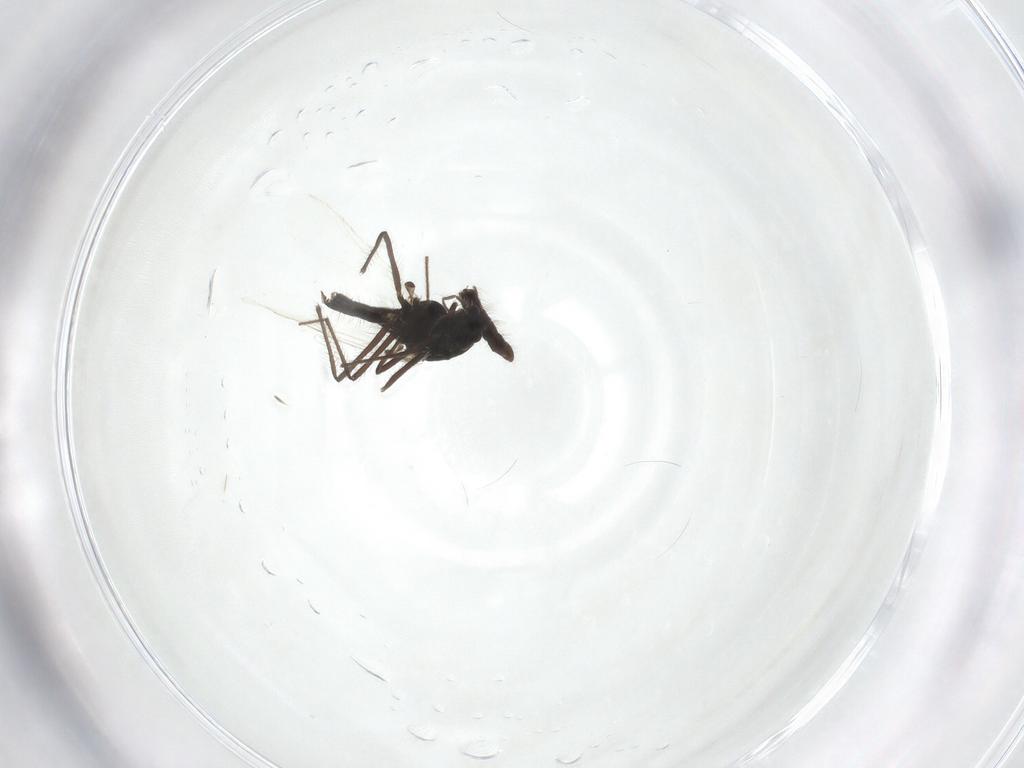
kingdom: Animalia
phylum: Arthropoda
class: Insecta
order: Diptera
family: Chironomidae
